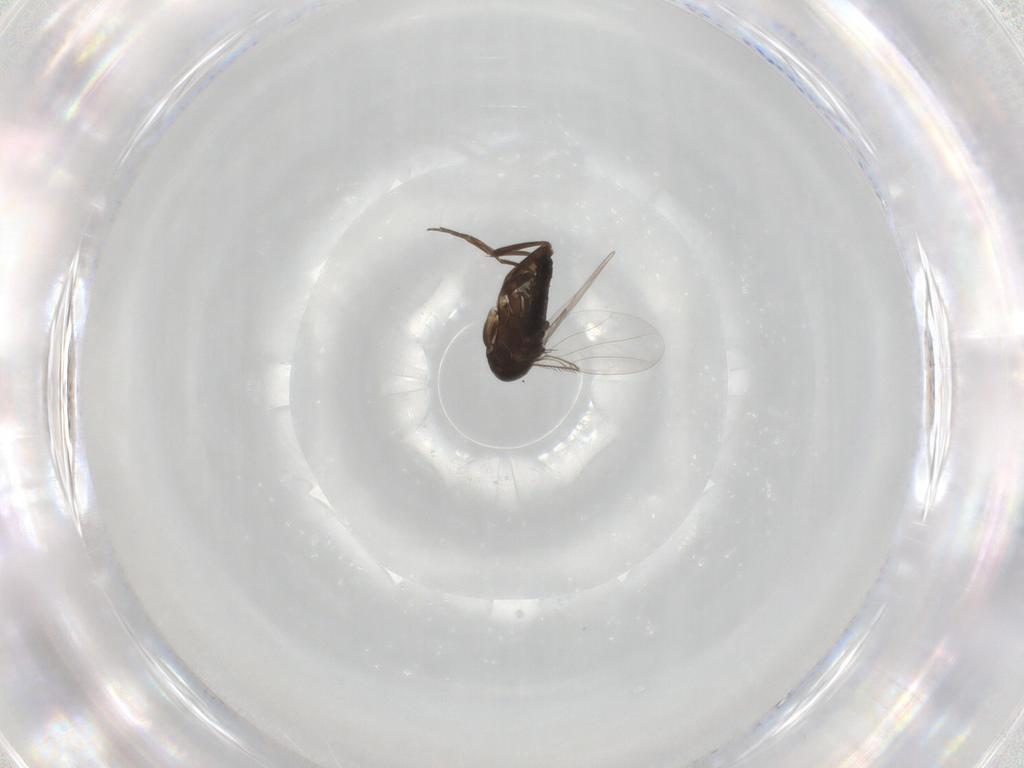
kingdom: Animalia
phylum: Arthropoda
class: Insecta
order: Diptera
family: Phoridae
